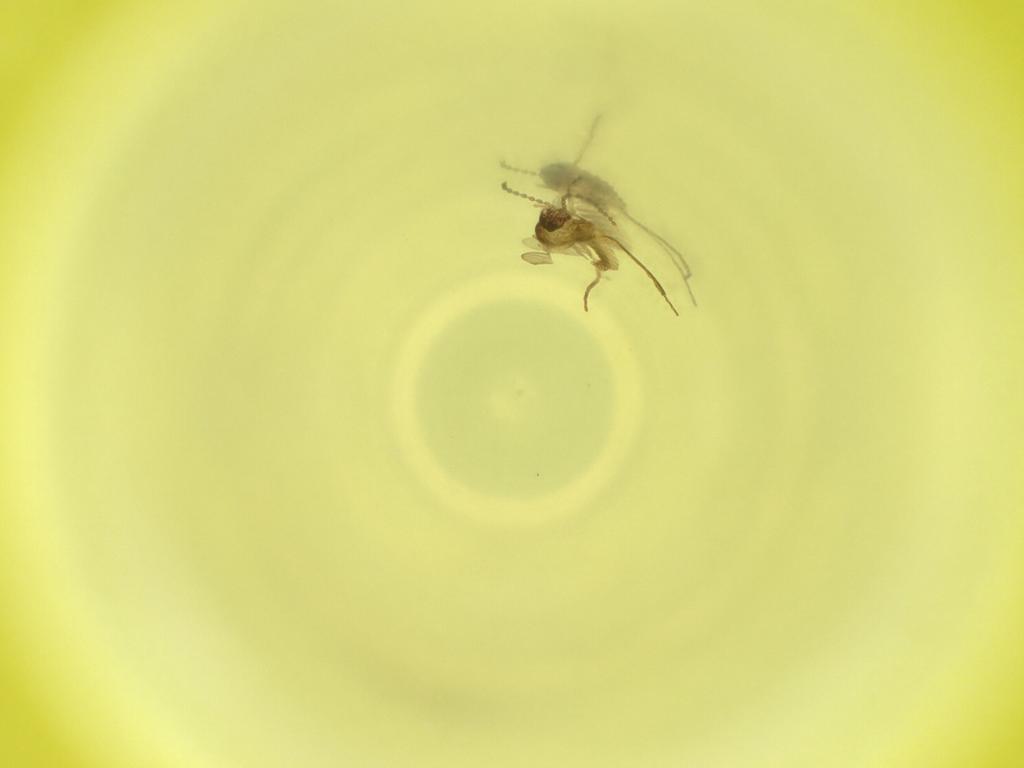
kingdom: Animalia
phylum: Arthropoda
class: Insecta
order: Diptera
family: Cecidomyiidae
